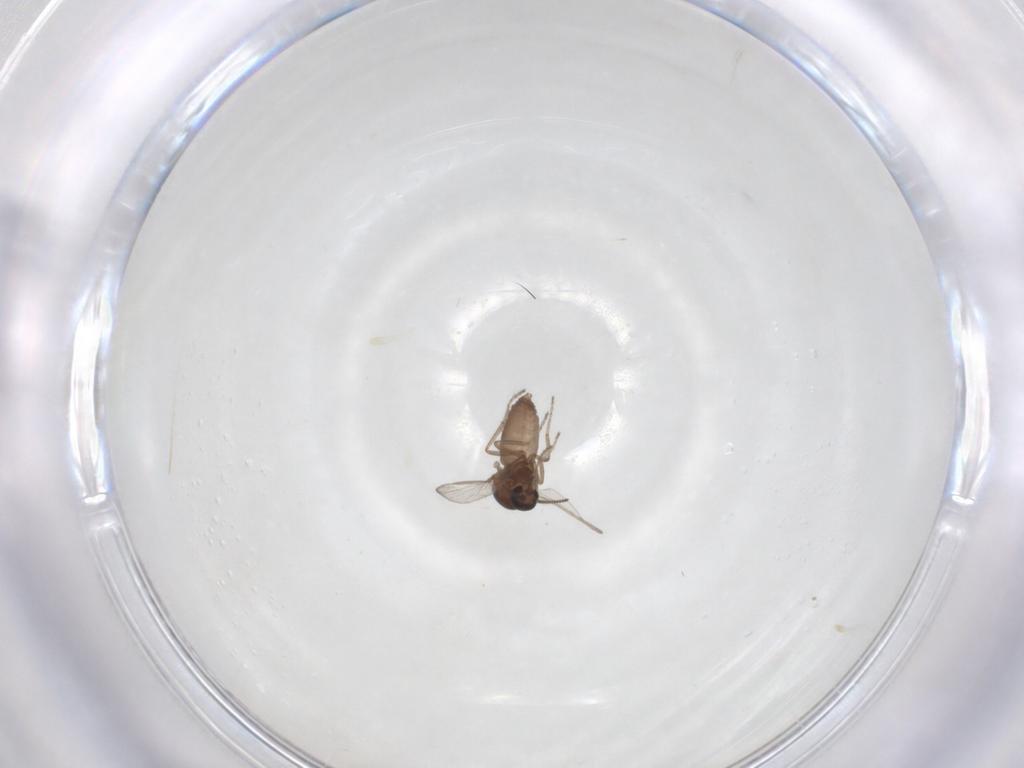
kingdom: Animalia
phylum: Arthropoda
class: Insecta
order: Diptera
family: Ceratopogonidae
